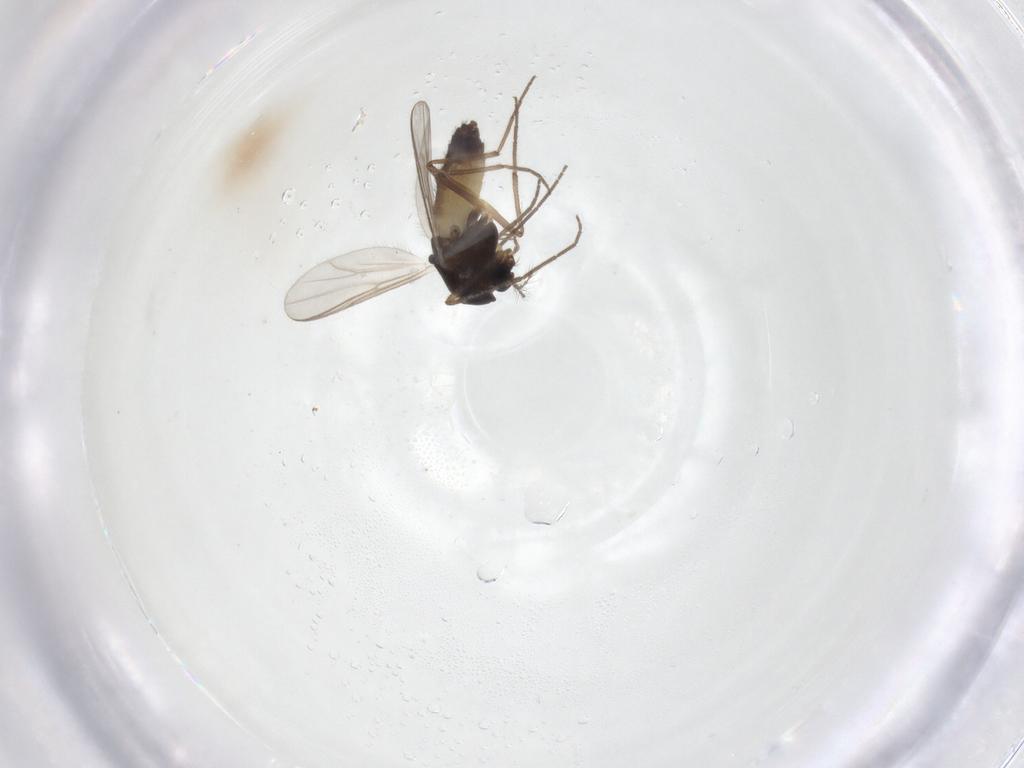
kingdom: Animalia
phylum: Arthropoda
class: Insecta
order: Diptera
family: Chironomidae
